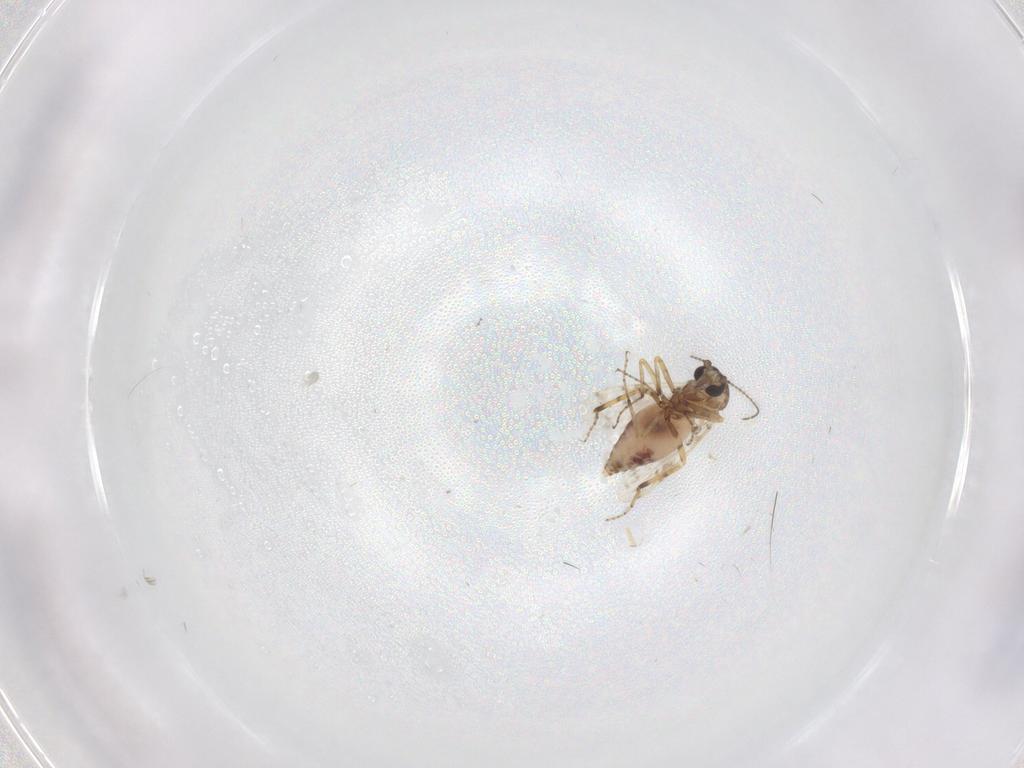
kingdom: Animalia
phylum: Arthropoda
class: Insecta
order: Diptera
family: Ceratopogonidae
